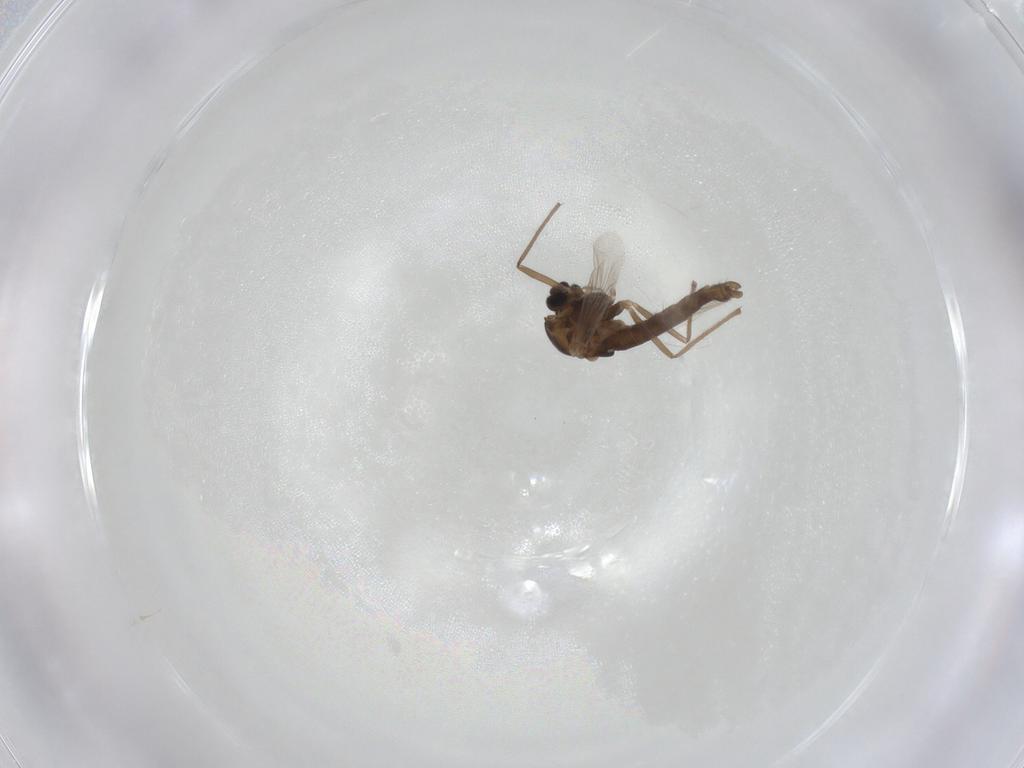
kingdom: Animalia
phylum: Arthropoda
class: Insecta
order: Diptera
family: Chironomidae
